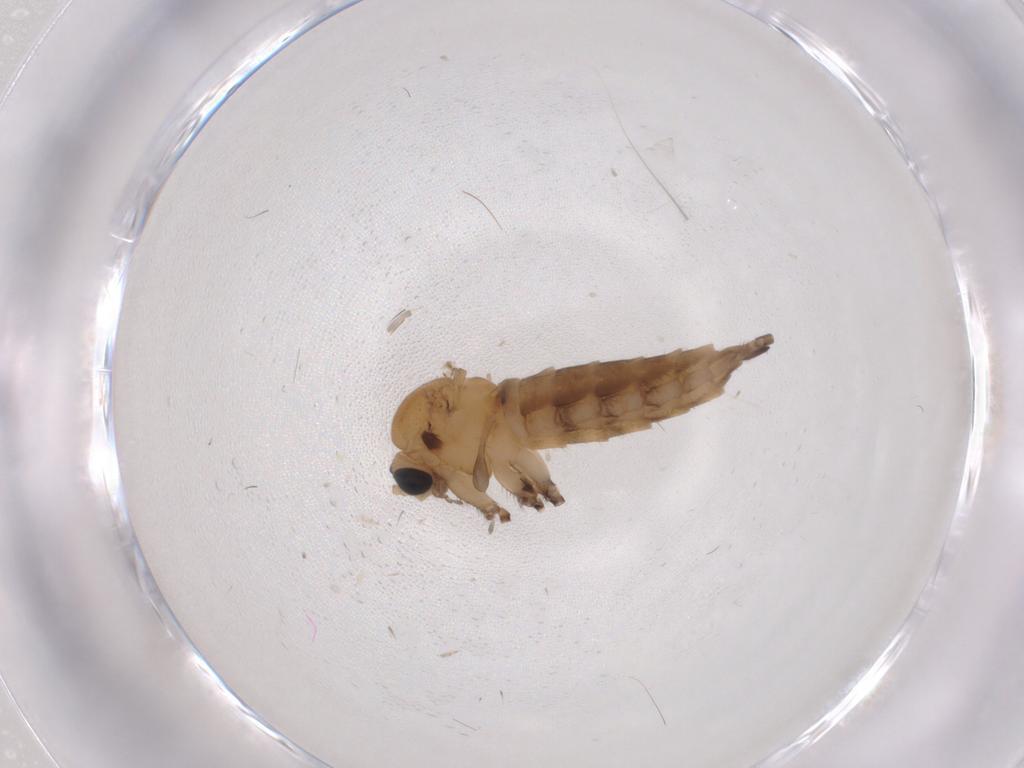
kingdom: Animalia
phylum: Arthropoda
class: Insecta
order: Diptera
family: Sciaridae
